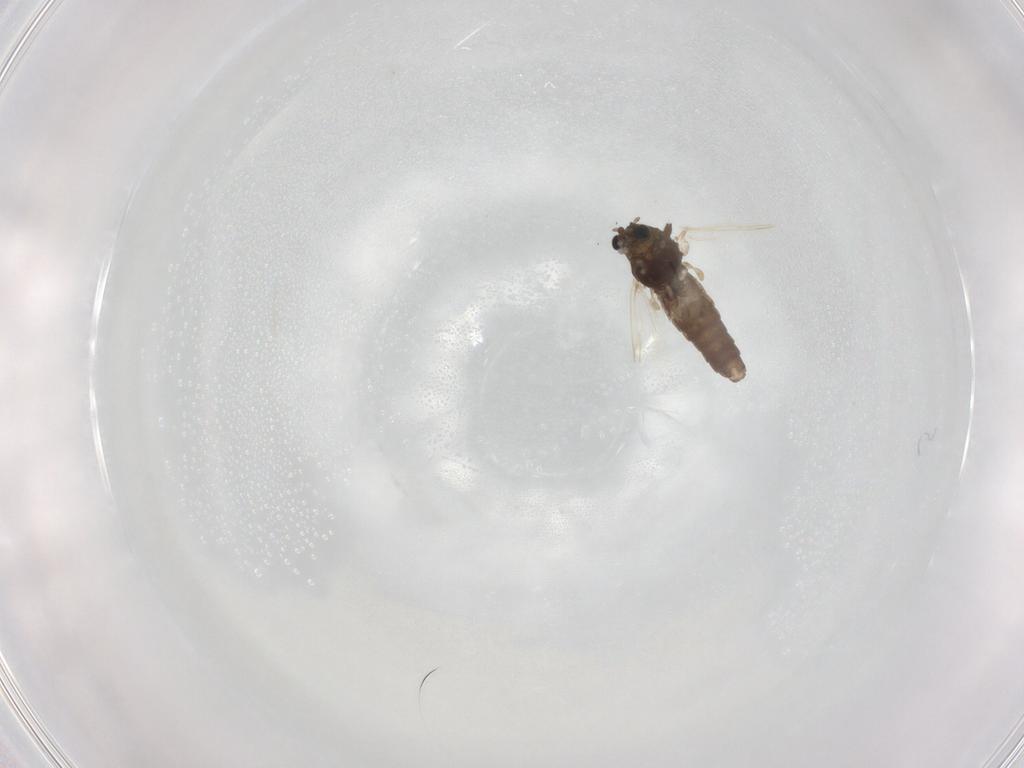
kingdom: Animalia
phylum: Arthropoda
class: Insecta
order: Diptera
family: Chironomidae
